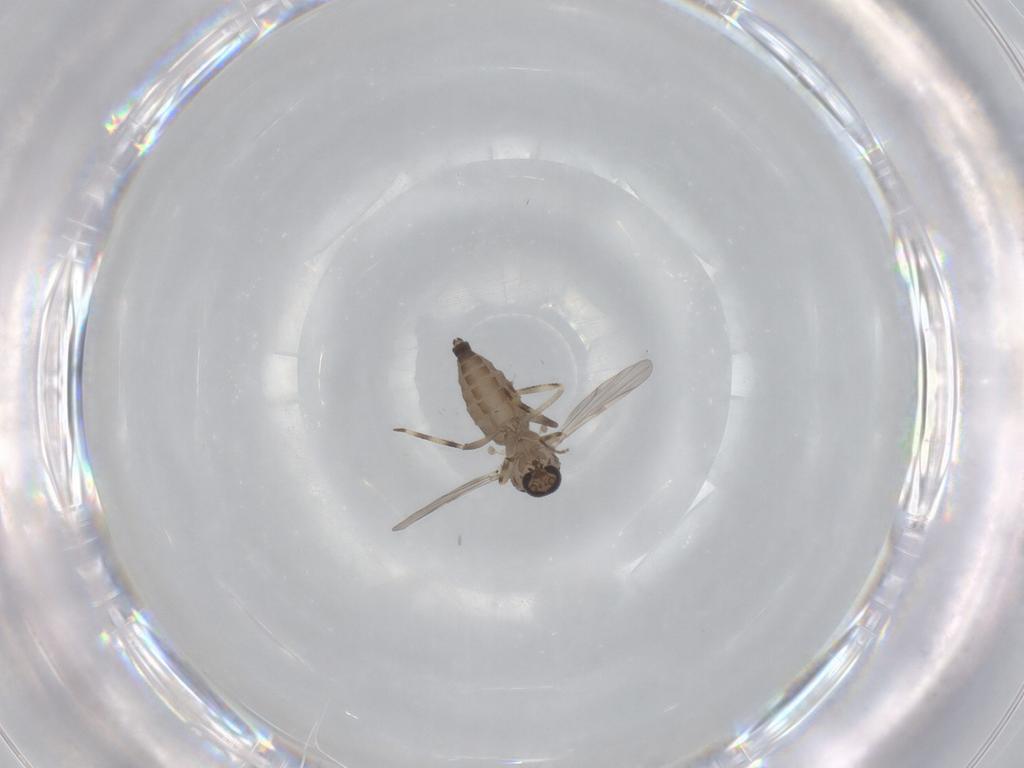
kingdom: Animalia
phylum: Arthropoda
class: Insecta
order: Diptera
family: Ceratopogonidae
